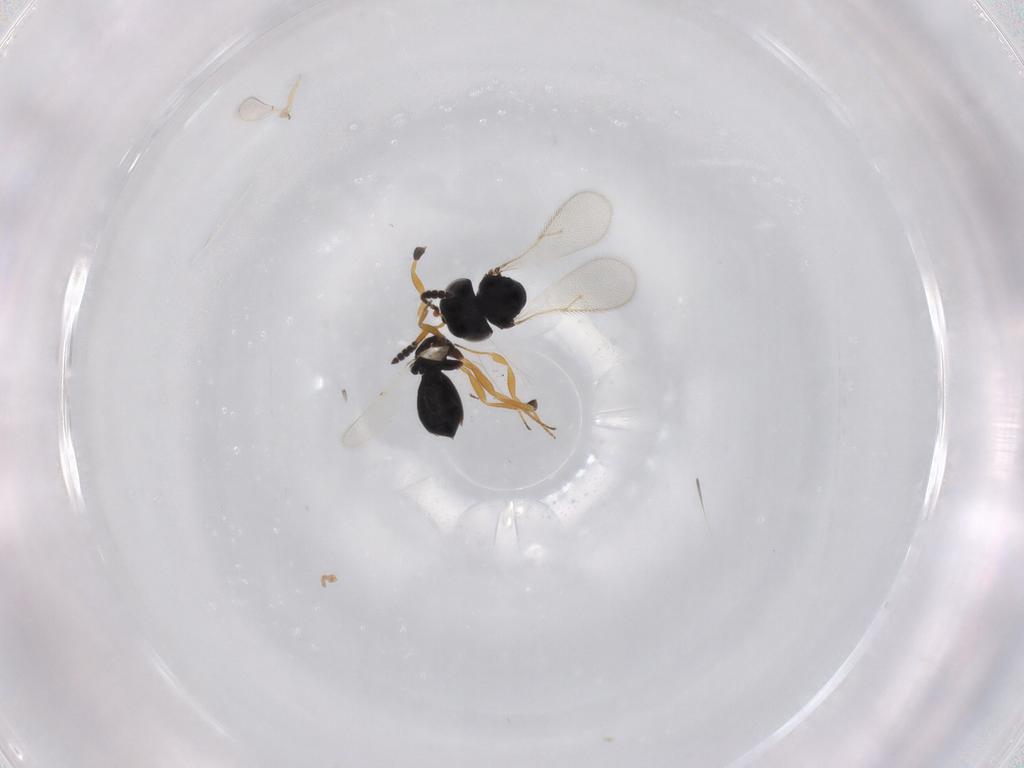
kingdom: Animalia
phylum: Arthropoda
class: Insecta
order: Hymenoptera
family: Scelionidae
